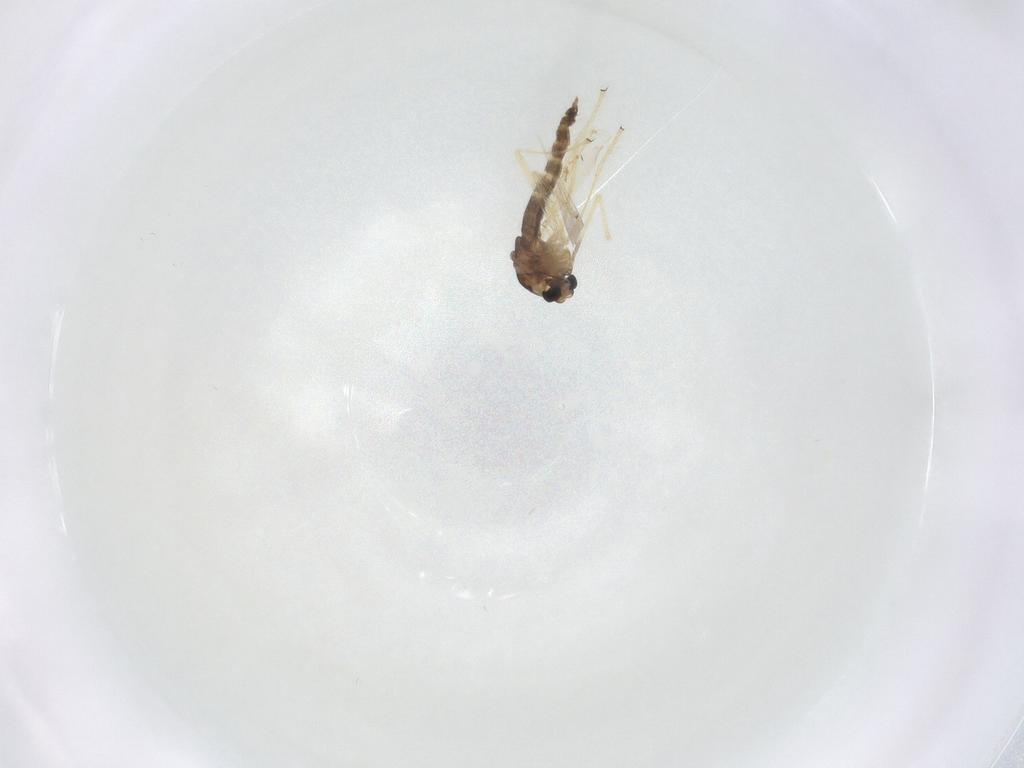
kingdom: Animalia
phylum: Arthropoda
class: Insecta
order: Diptera
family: Chironomidae
